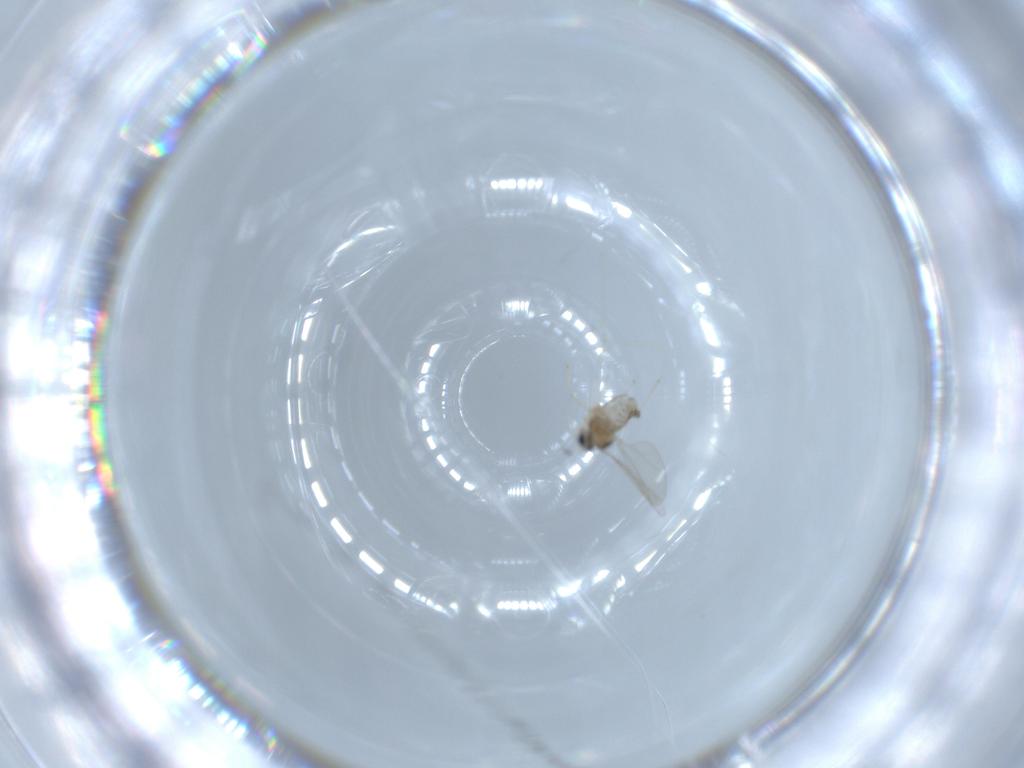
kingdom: Animalia
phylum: Arthropoda
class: Insecta
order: Diptera
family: Cecidomyiidae
